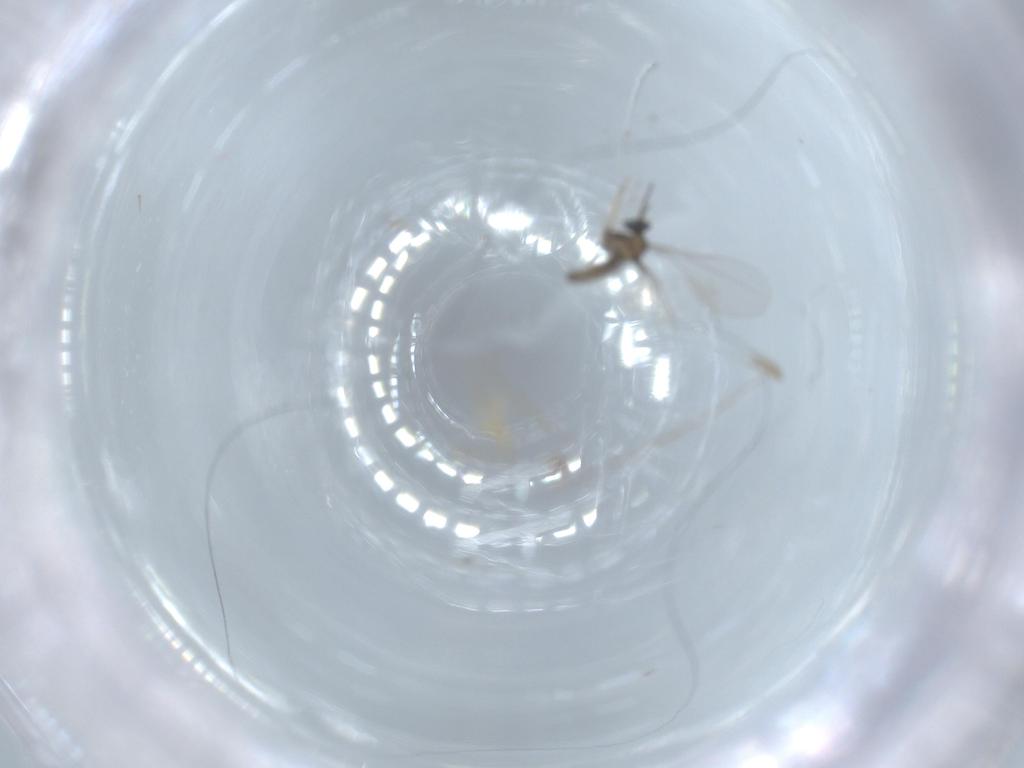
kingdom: Animalia
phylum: Arthropoda
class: Insecta
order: Diptera
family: Cecidomyiidae
